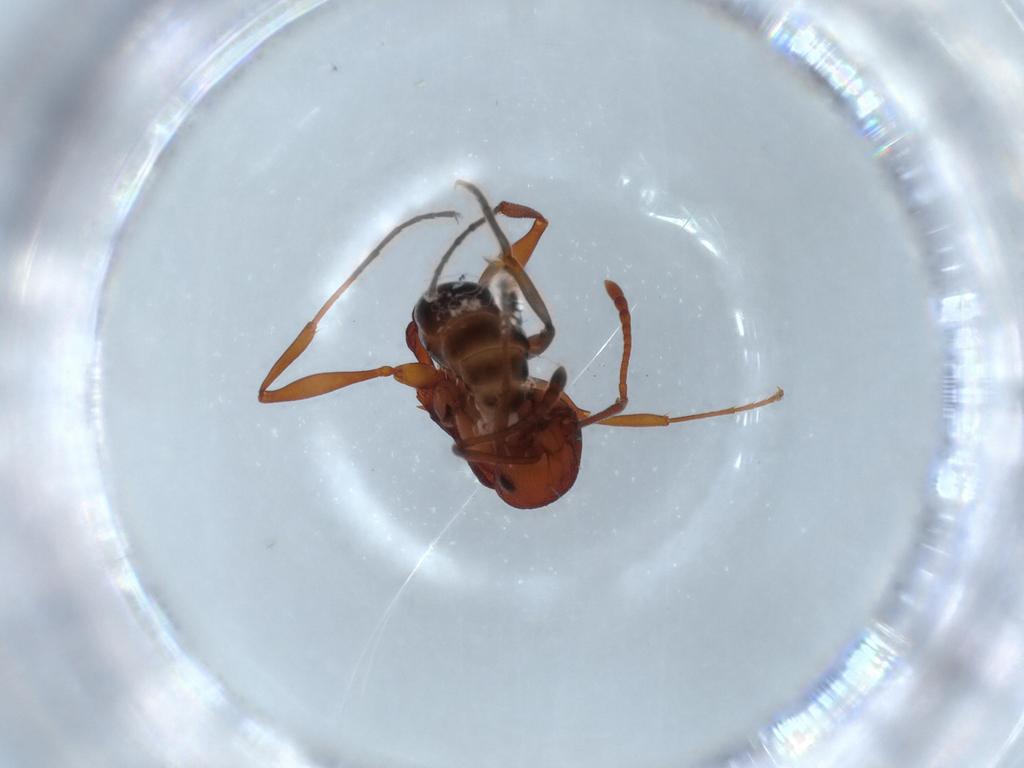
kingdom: Animalia
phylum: Arthropoda
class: Insecta
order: Hymenoptera
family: Formicidae
